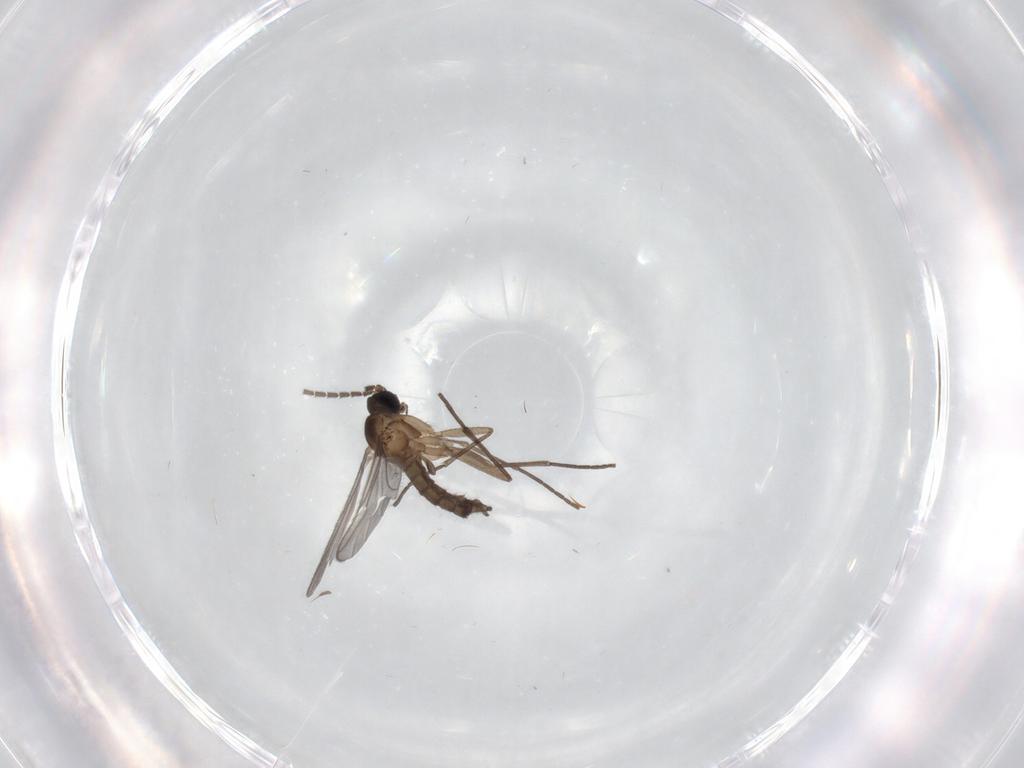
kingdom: Animalia
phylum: Arthropoda
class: Insecta
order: Diptera
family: Sciaridae
